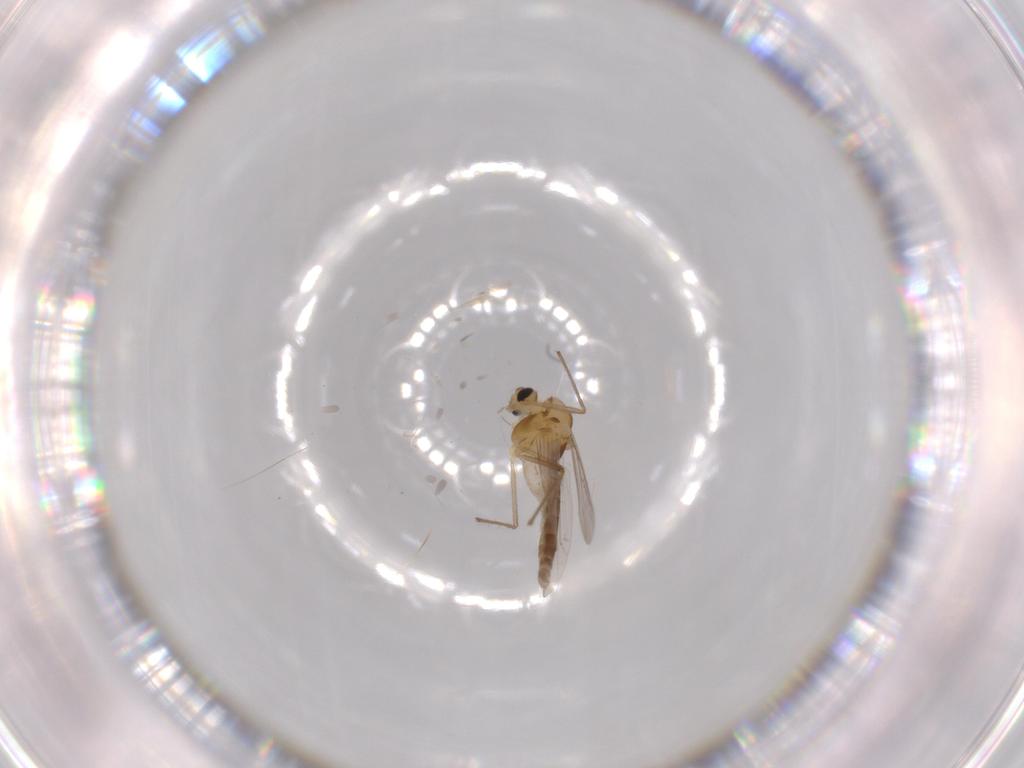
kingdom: Animalia
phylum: Arthropoda
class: Insecta
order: Diptera
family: Chironomidae
